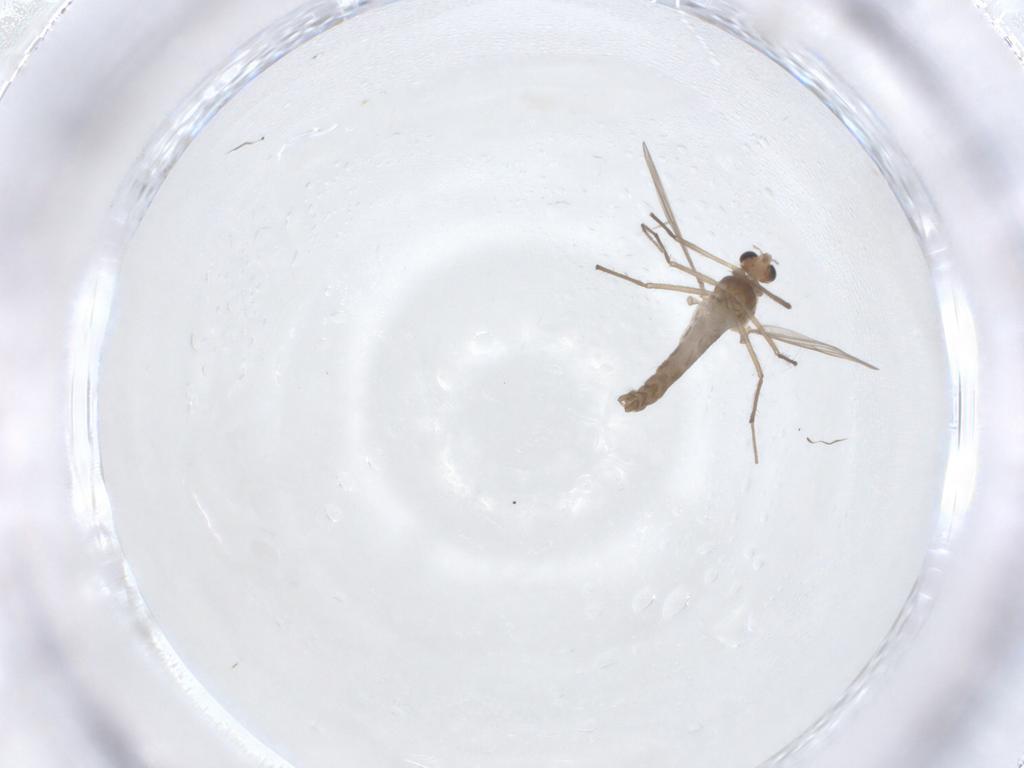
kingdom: Animalia
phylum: Arthropoda
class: Insecta
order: Diptera
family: Chironomidae
